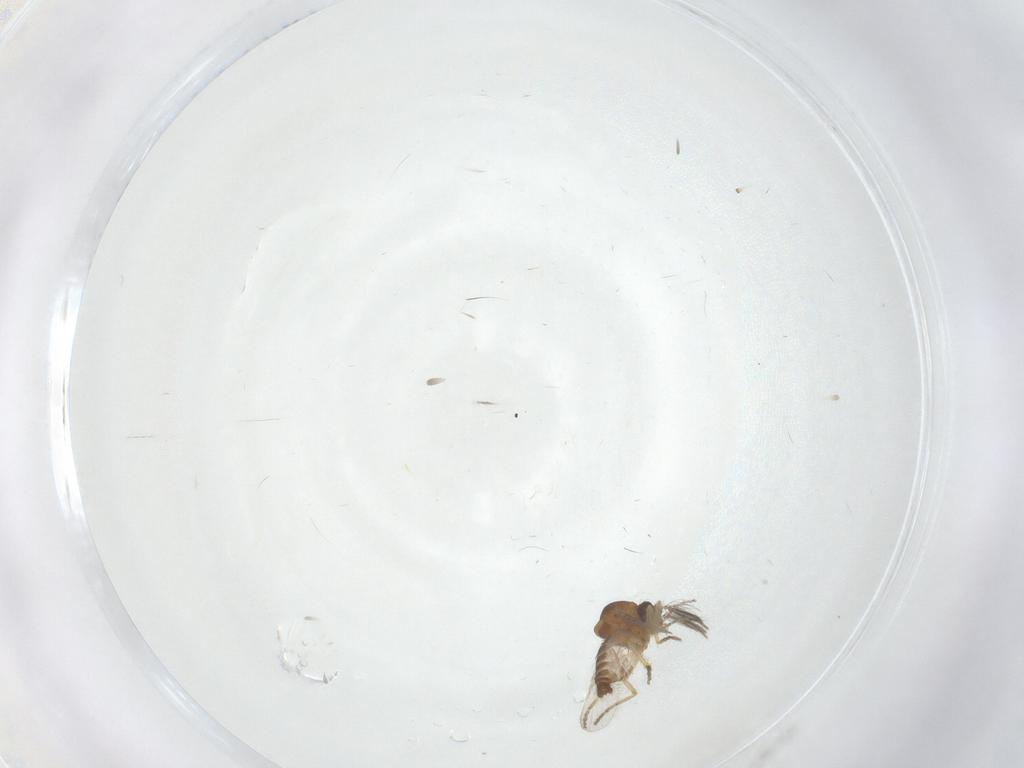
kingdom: Animalia
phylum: Arthropoda
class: Insecta
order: Diptera
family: Ceratopogonidae
